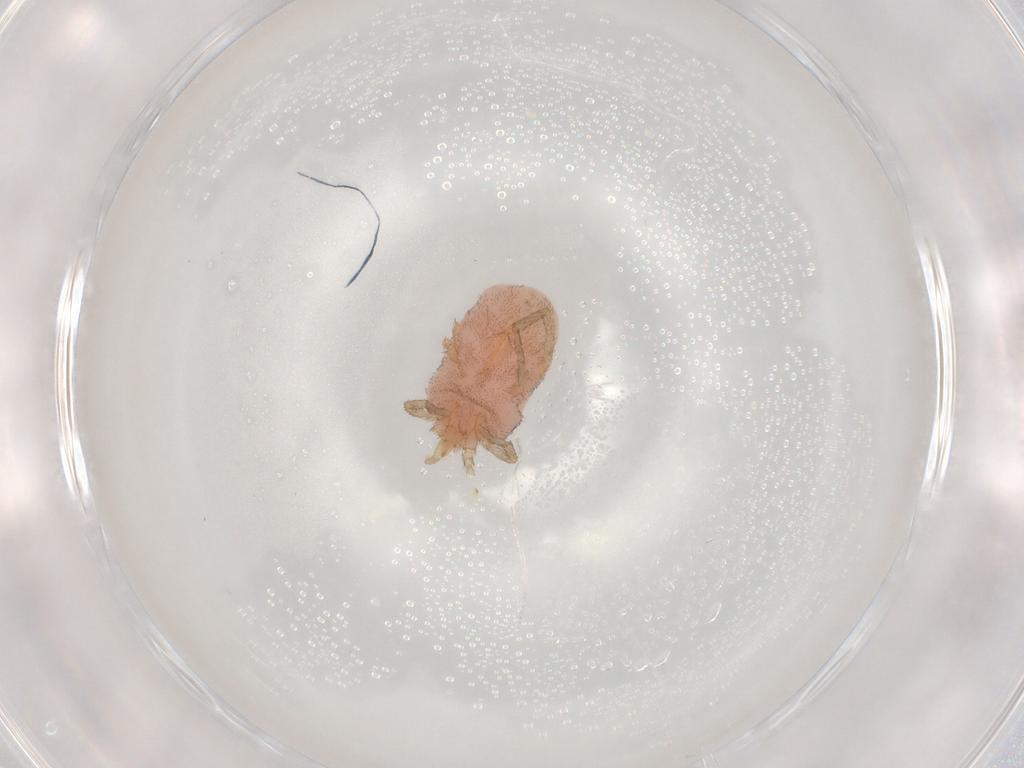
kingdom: Animalia
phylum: Arthropoda
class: Arachnida
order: Trombidiformes
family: Erythraeidae
